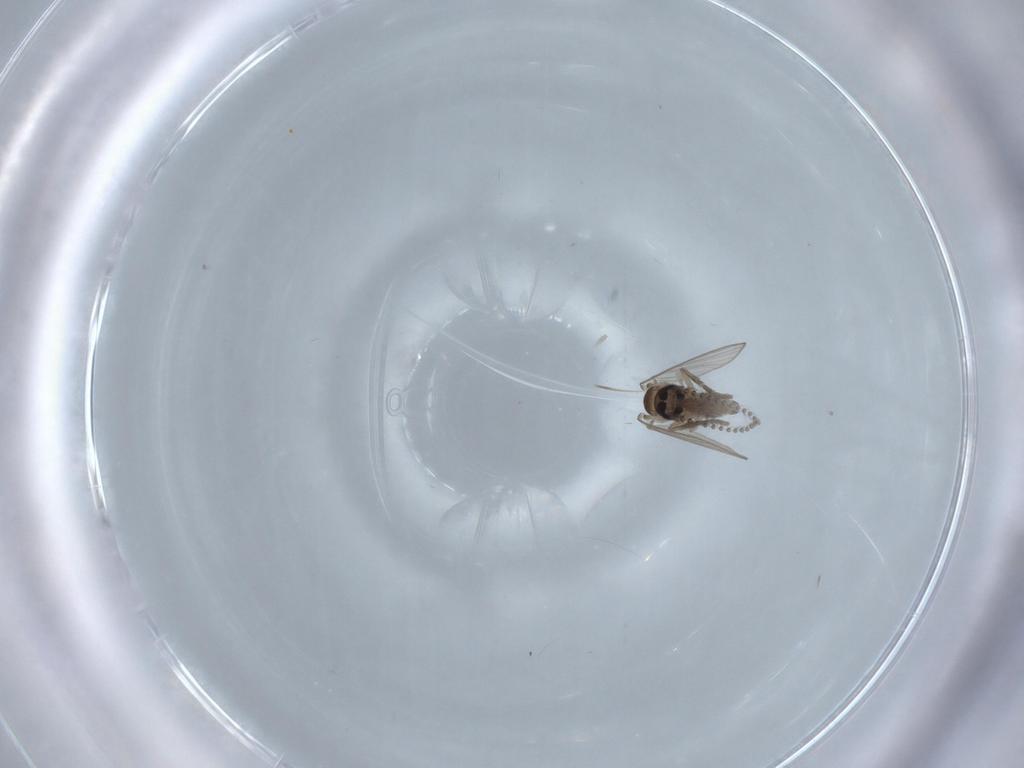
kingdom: Animalia
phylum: Arthropoda
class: Insecta
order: Diptera
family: Psychodidae
